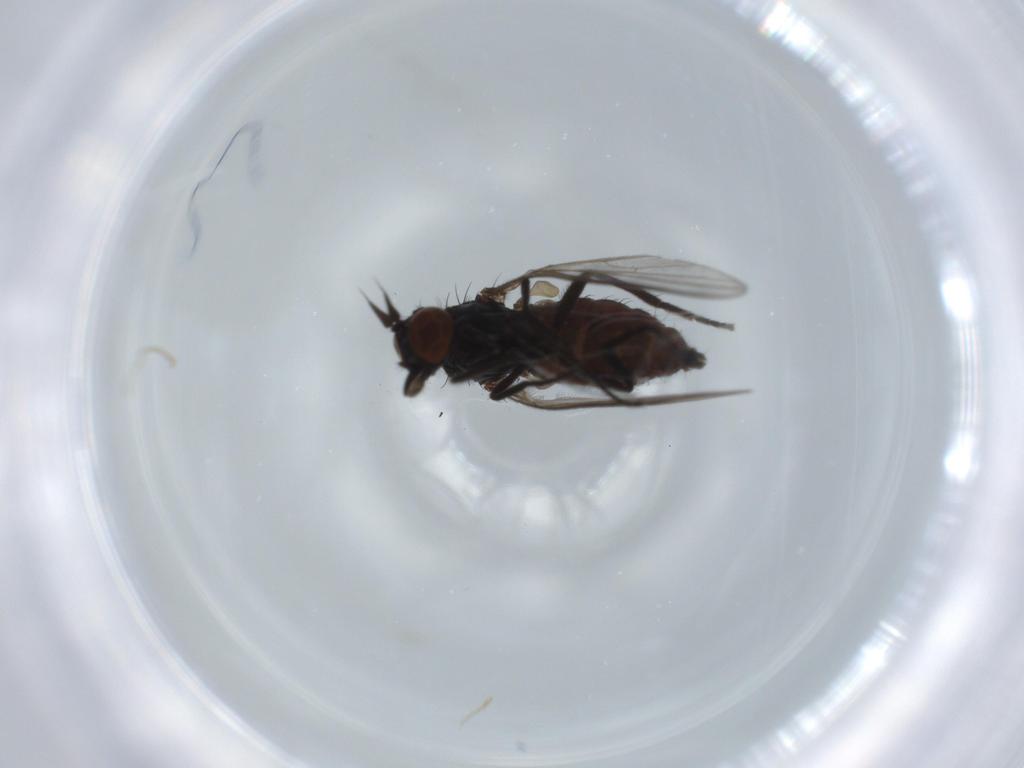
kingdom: Animalia
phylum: Arthropoda
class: Insecta
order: Diptera
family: Dolichopodidae
